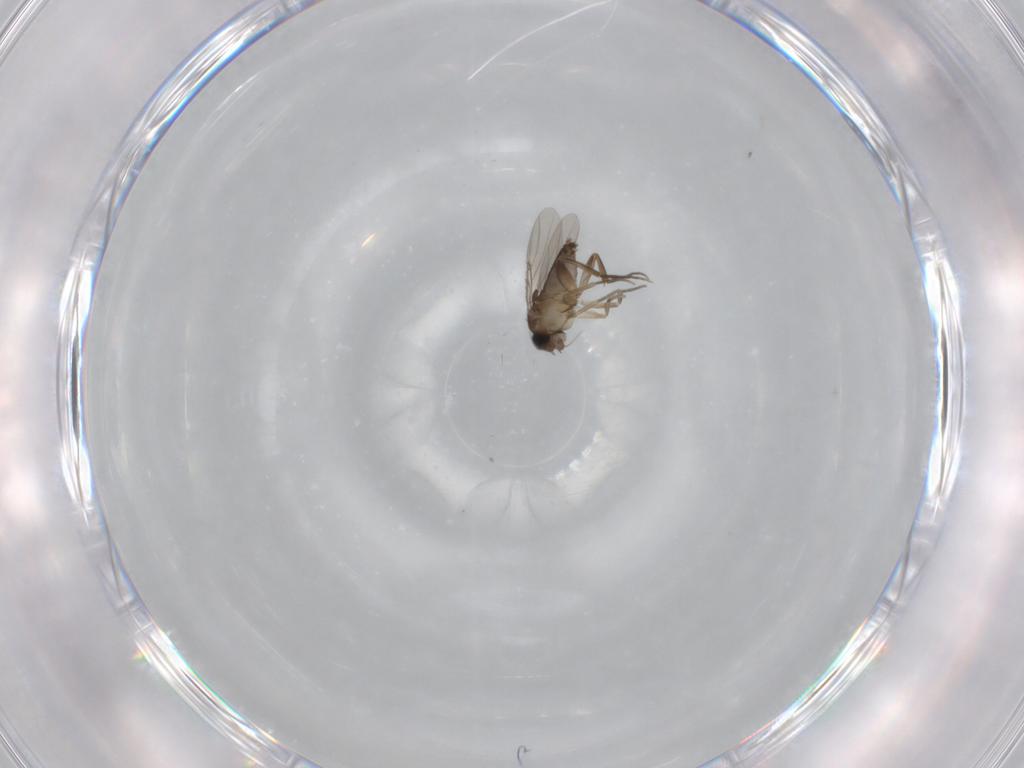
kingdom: Animalia
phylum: Arthropoda
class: Insecta
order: Diptera
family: Phoridae
